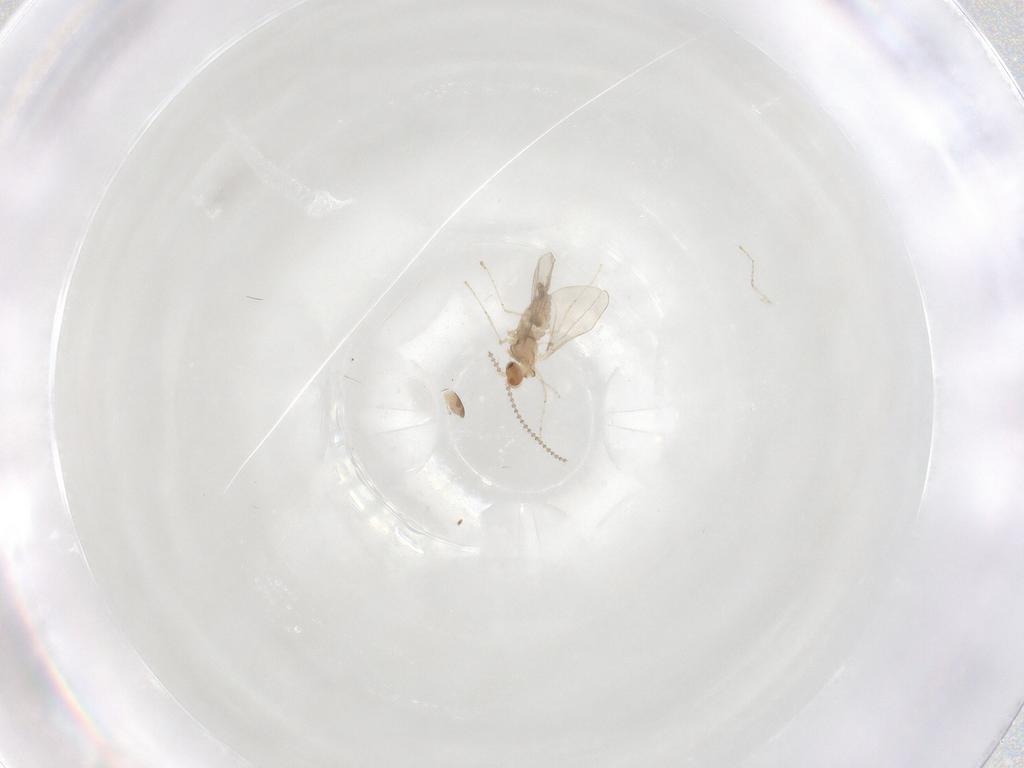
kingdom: Animalia
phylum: Arthropoda
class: Insecta
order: Diptera
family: Cecidomyiidae
